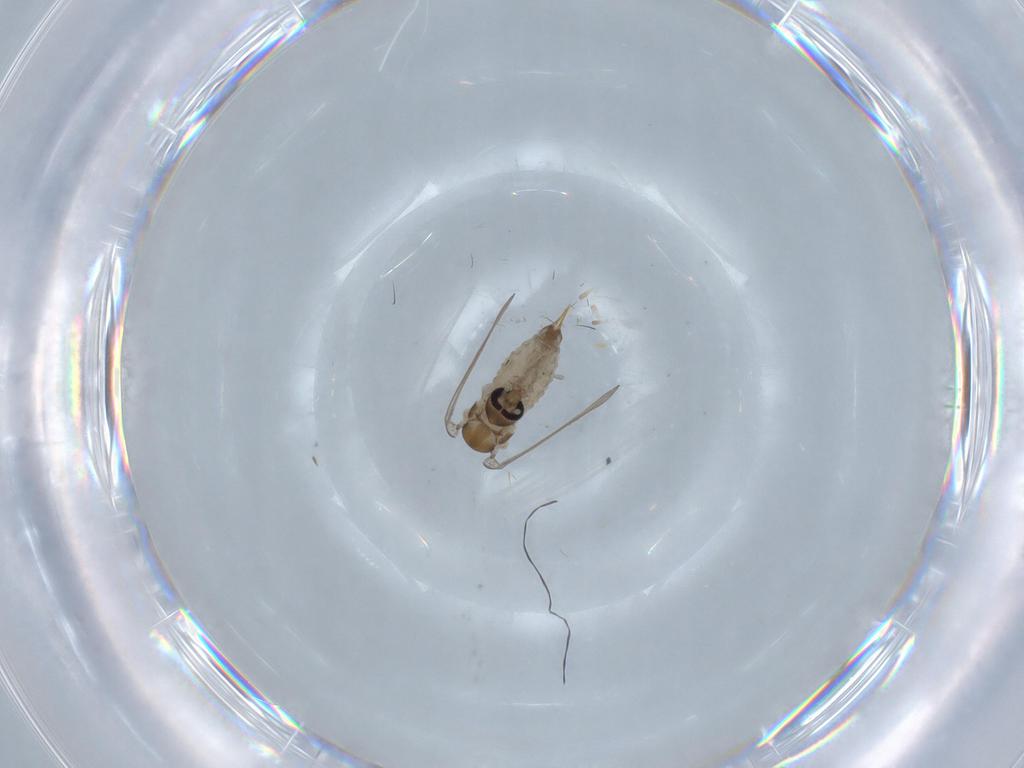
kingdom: Animalia
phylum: Arthropoda
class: Insecta
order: Diptera
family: Psychodidae
